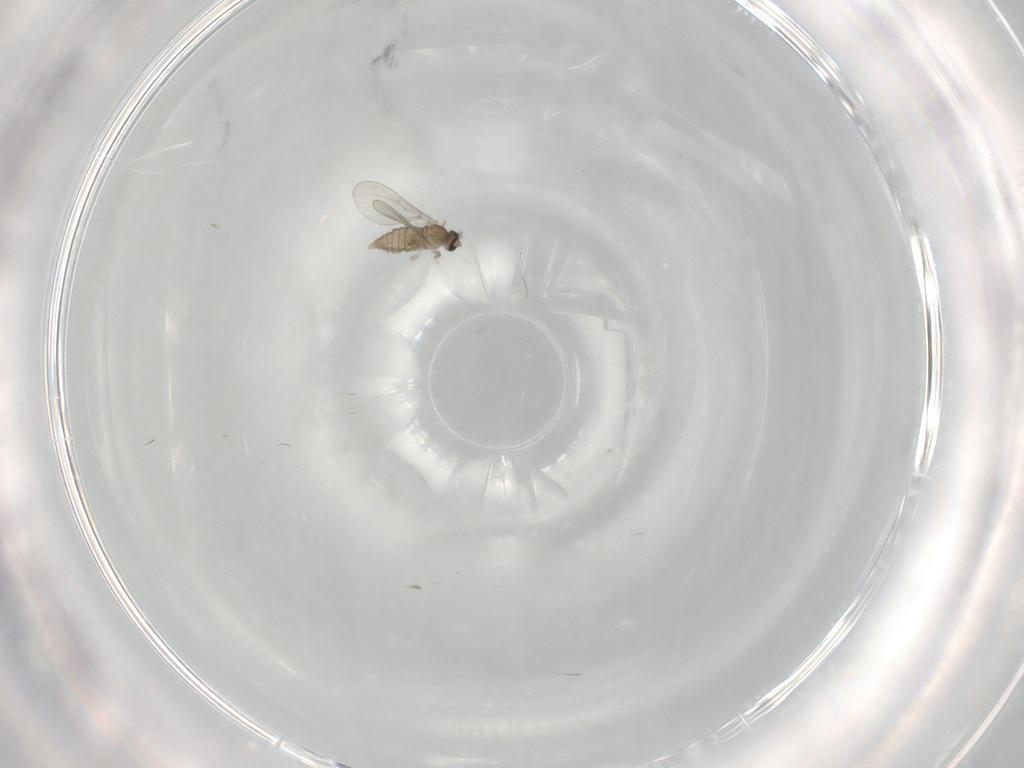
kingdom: Animalia
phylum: Arthropoda
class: Insecta
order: Diptera
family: Cecidomyiidae
